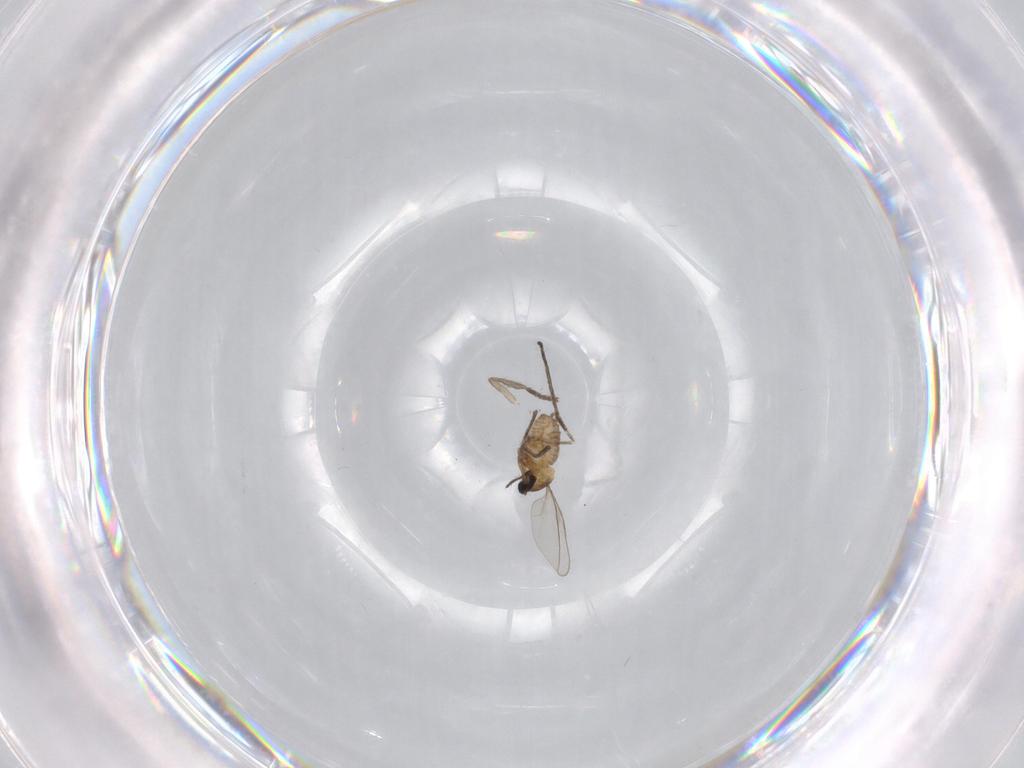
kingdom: Animalia
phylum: Arthropoda
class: Insecta
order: Diptera
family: Cecidomyiidae
